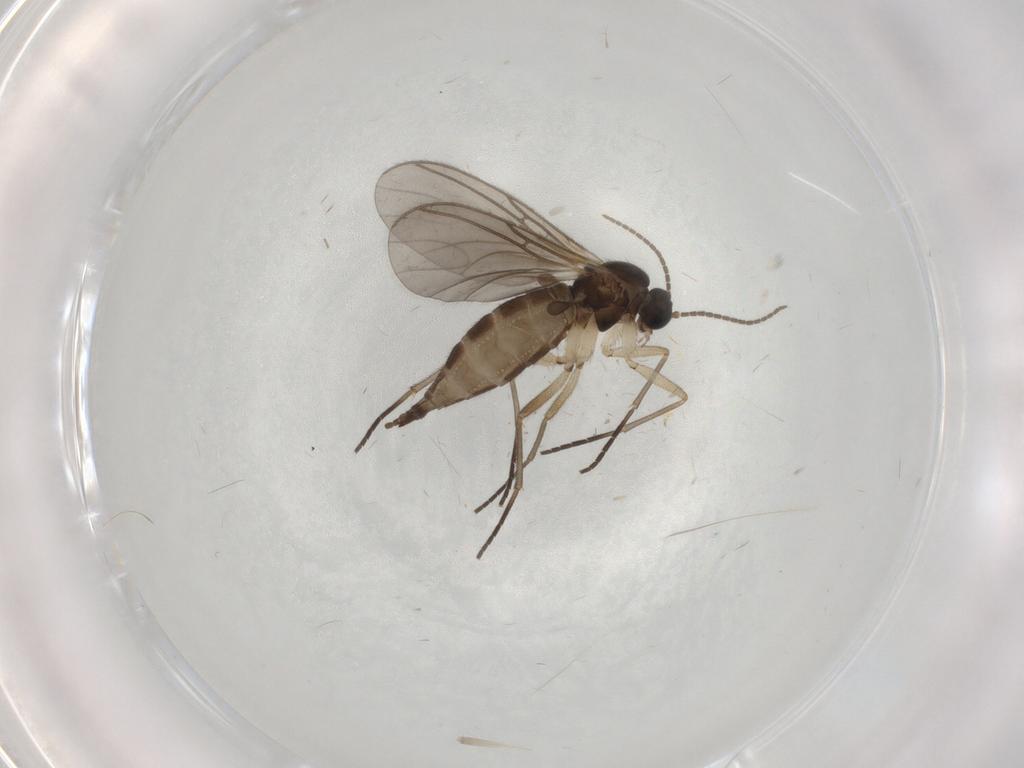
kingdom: Animalia
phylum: Arthropoda
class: Insecta
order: Diptera
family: Cecidomyiidae
